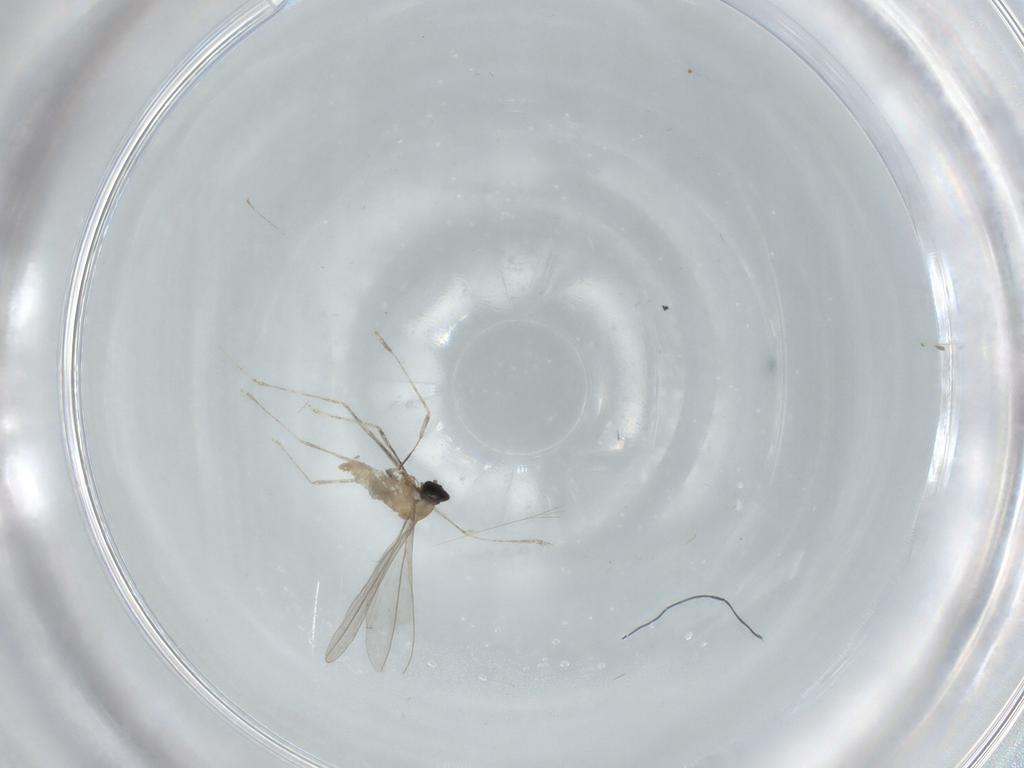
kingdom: Animalia
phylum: Arthropoda
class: Insecta
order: Diptera
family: Cecidomyiidae
